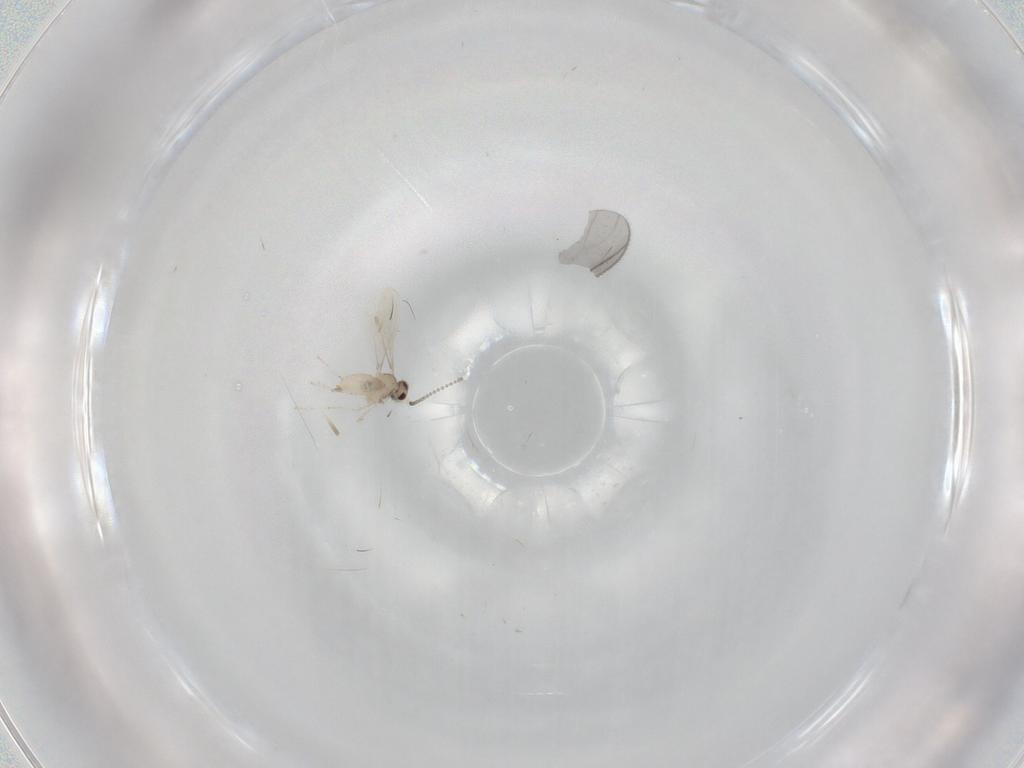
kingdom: Animalia
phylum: Arthropoda
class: Insecta
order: Diptera
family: Cecidomyiidae
